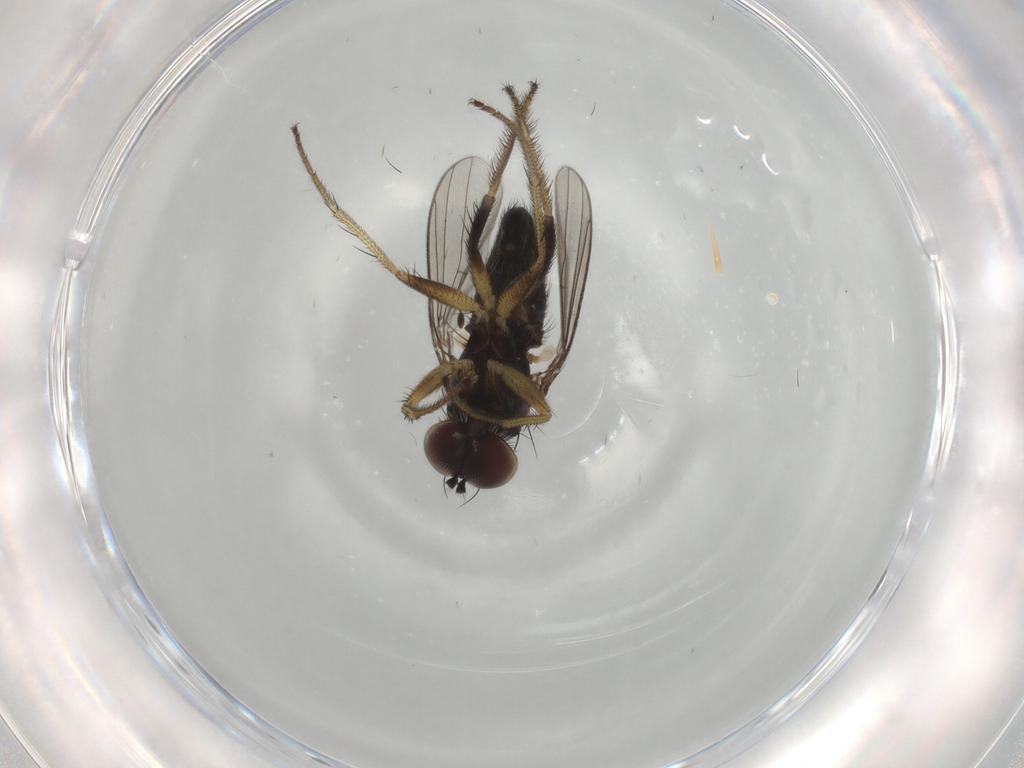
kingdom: Animalia
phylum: Arthropoda
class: Insecta
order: Diptera
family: Dolichopodidae
